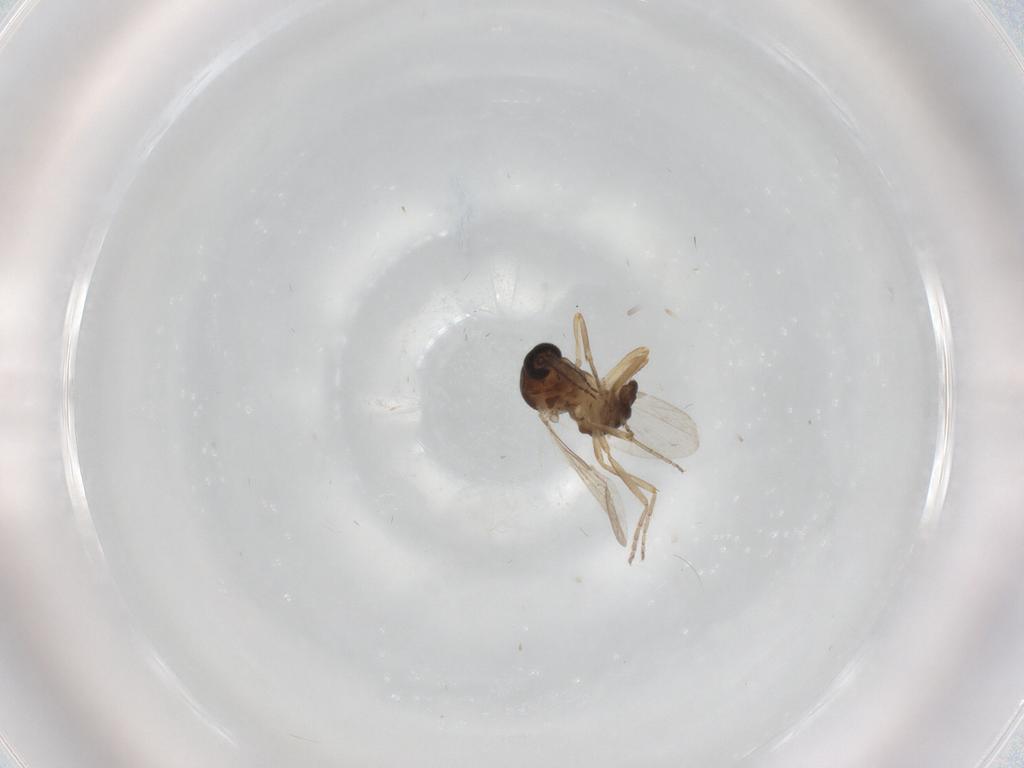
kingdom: Animalia
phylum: Arthropoda
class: Insecta
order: Diptera
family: Ceratopogonidae
